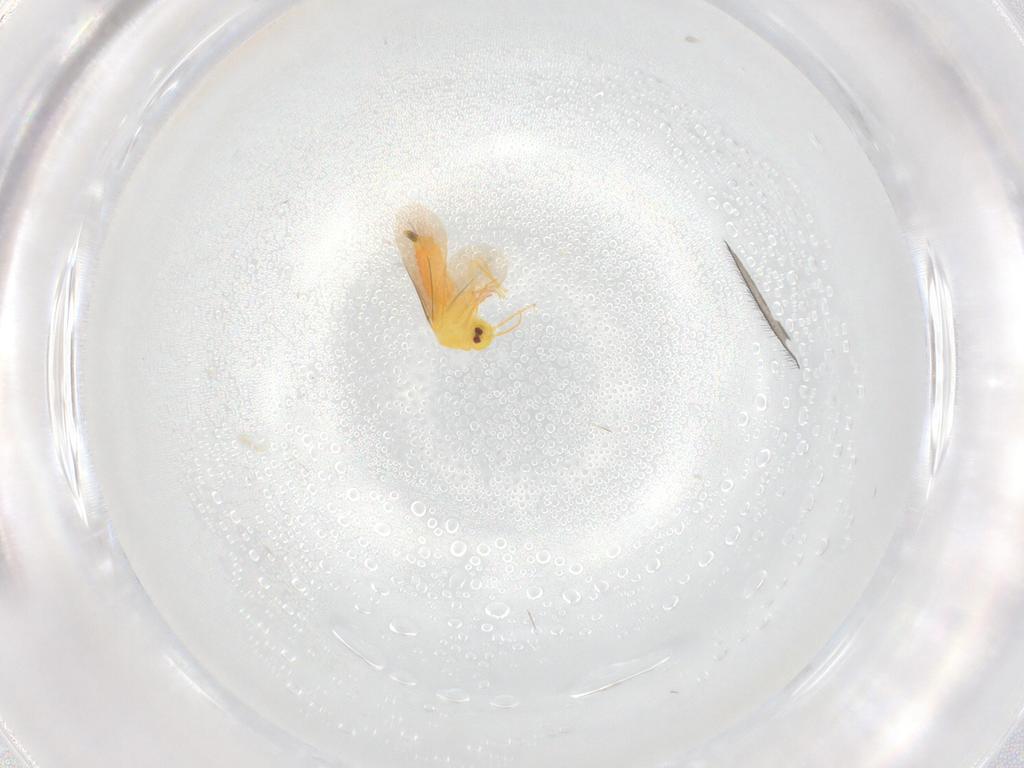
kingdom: Animalia
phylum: Arthropoda
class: Insecta
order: Hemiptera
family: Aleyrodidae
